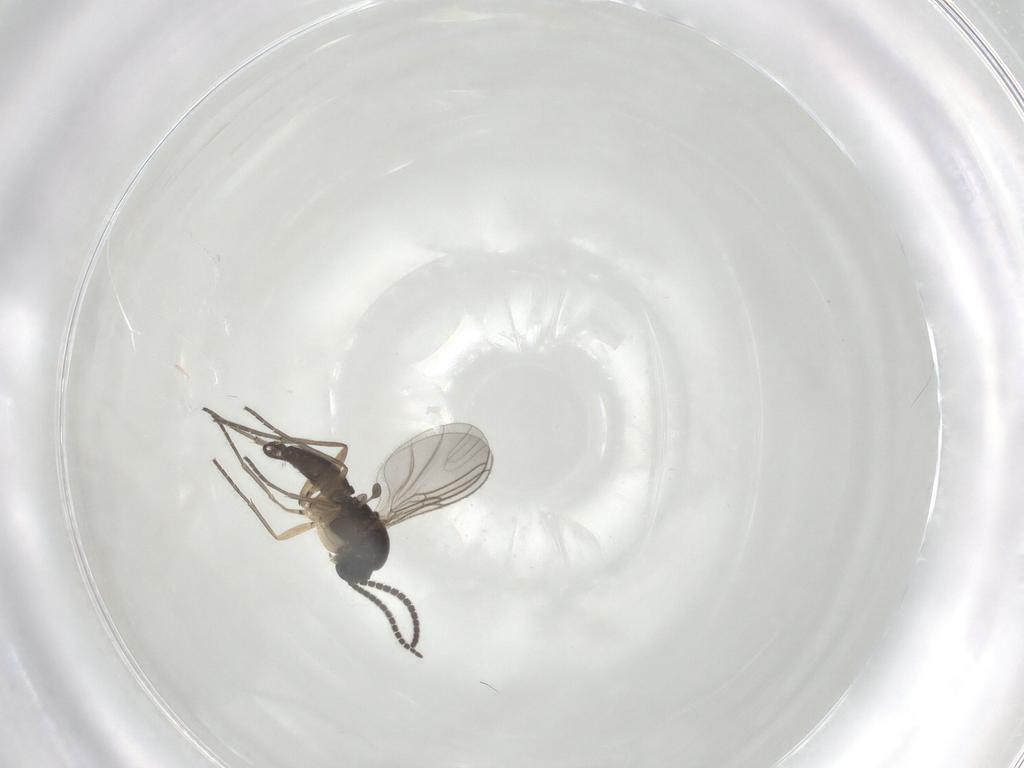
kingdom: Animalia
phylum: Arthropoda
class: Insecta
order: Diptera
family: Sciaridae
